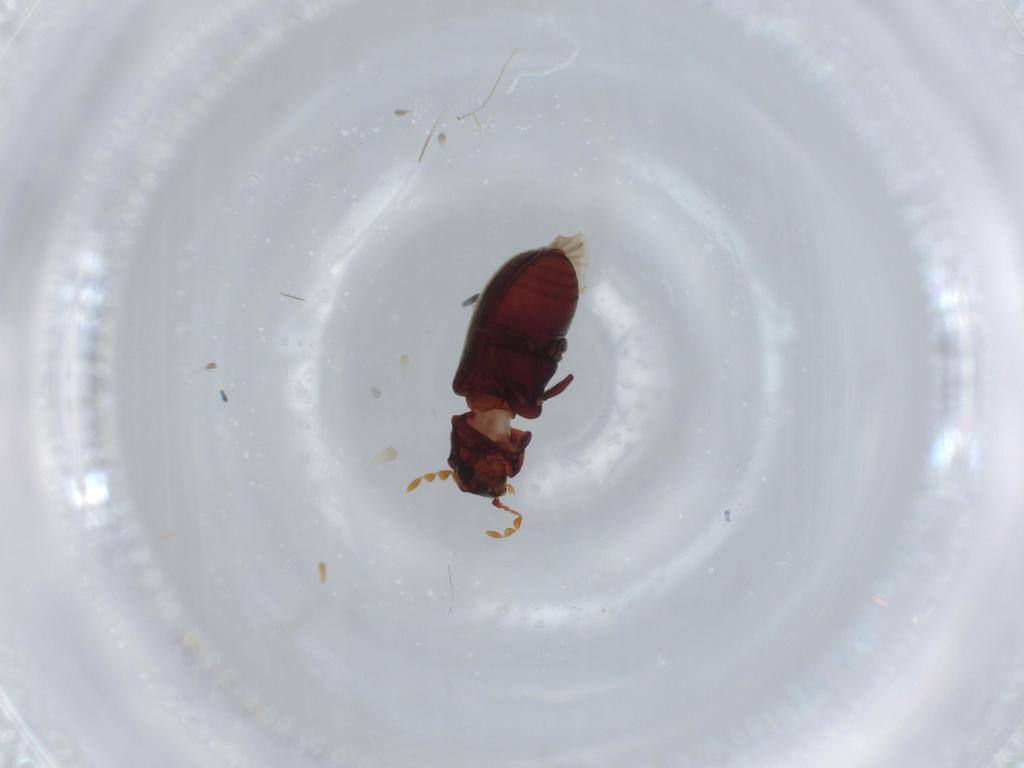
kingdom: Animalia
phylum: Arthropoda
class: Insecta
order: Coleoptera
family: Anobiidae
